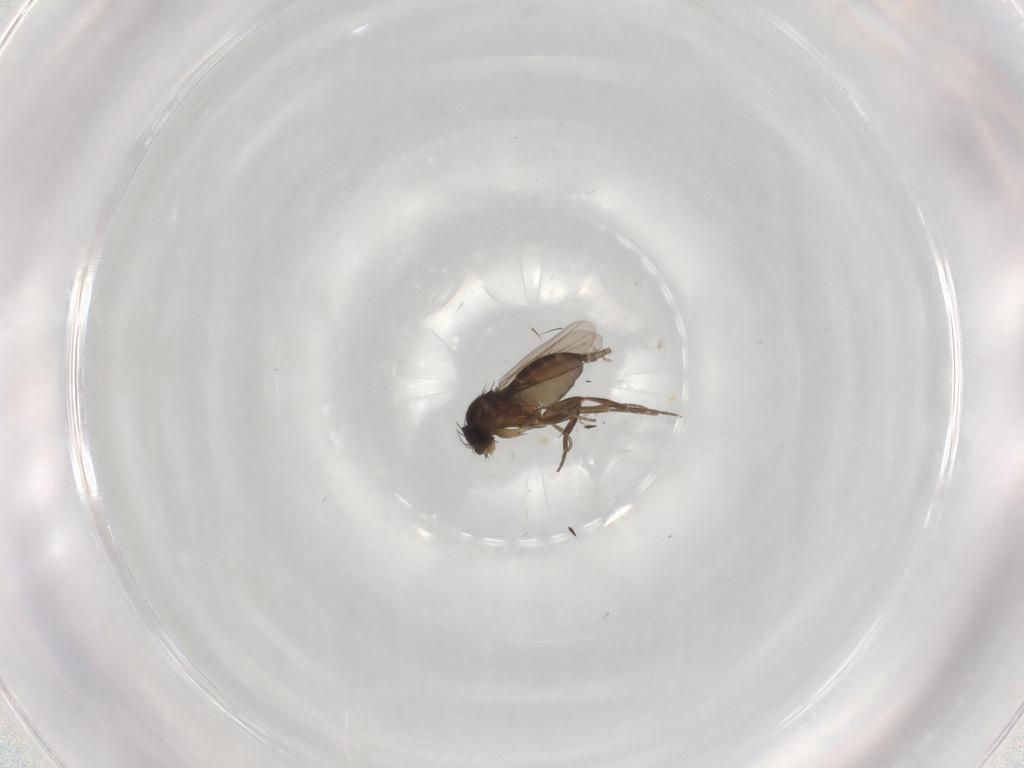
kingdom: Animalia
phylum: Arthropoda
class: Insecta
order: Diptera
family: Phoridae
